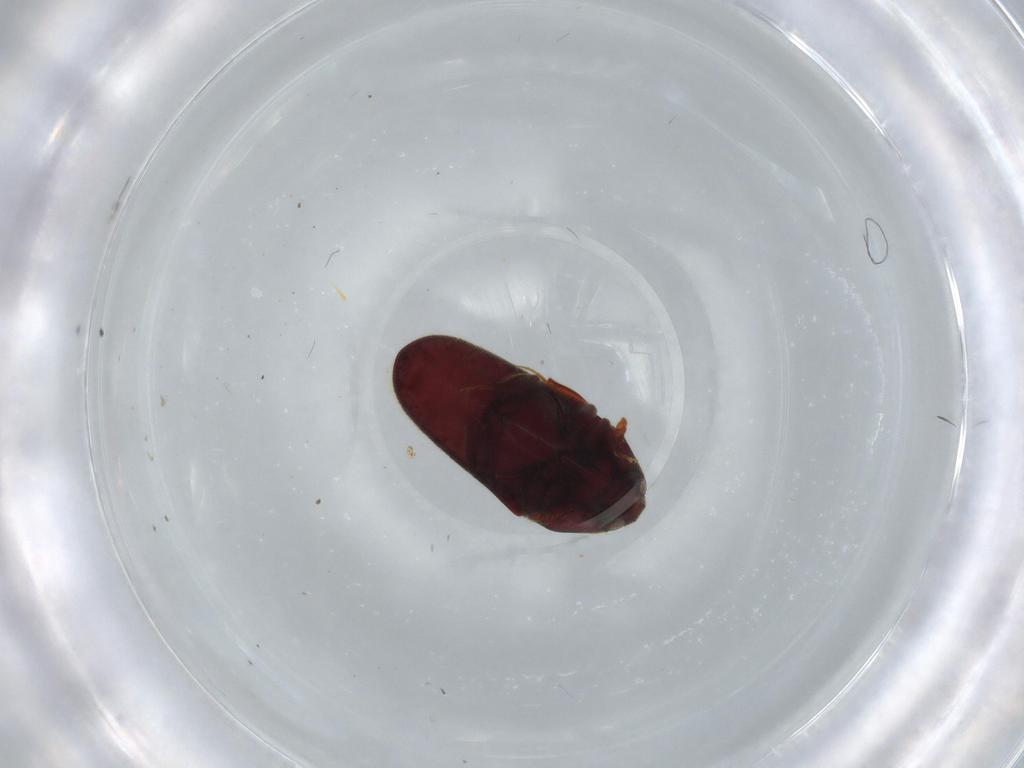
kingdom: Animalia
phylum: Arthropoda
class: Insecta
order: Coleoptera
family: Throscidae
